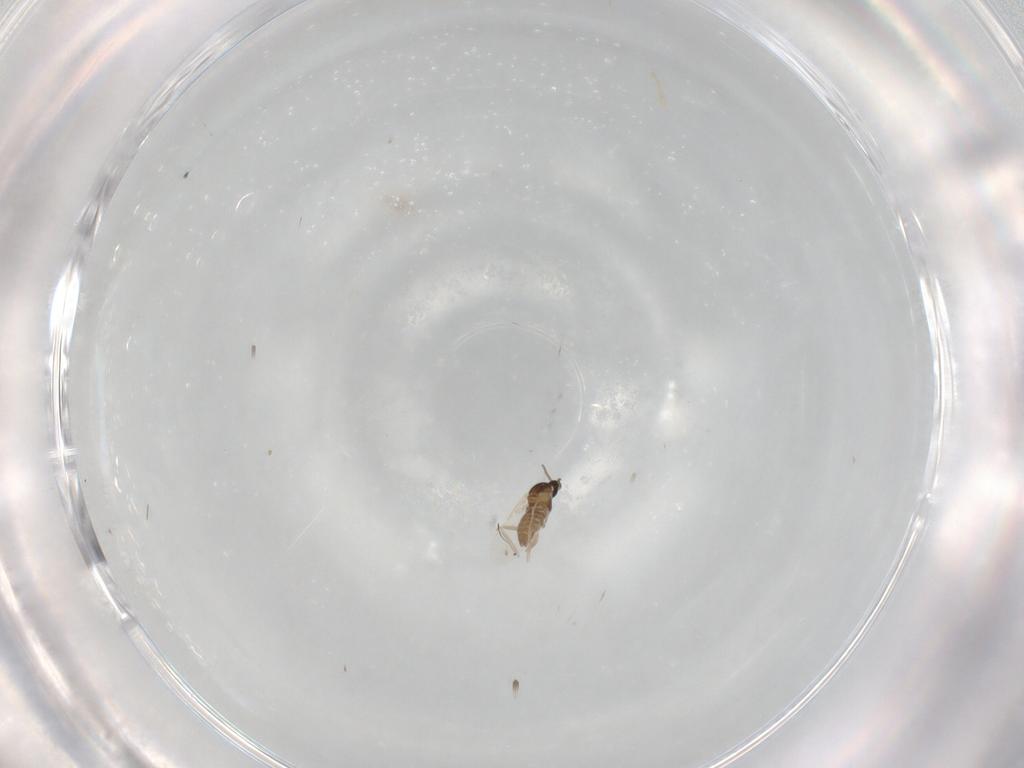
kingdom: Animalia
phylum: Arthropoda
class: Insecta
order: Diptera
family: Cecidomyiidae
